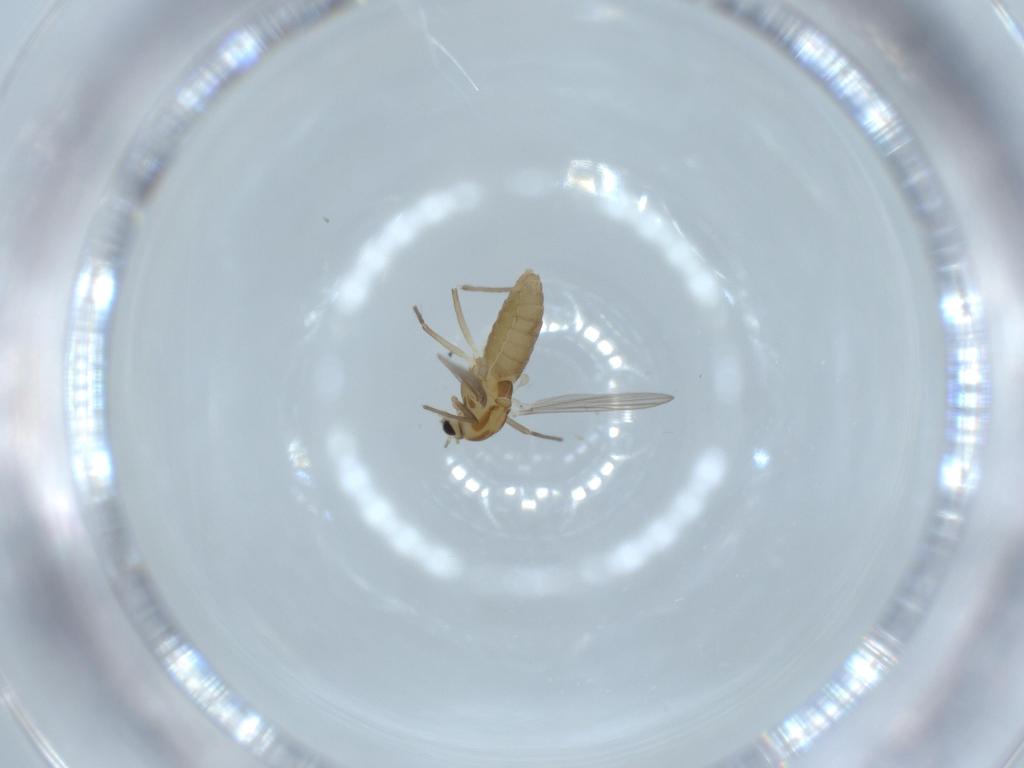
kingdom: Animalia
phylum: Arthropoda
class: Insecta
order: Diptera
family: Chironomidae
